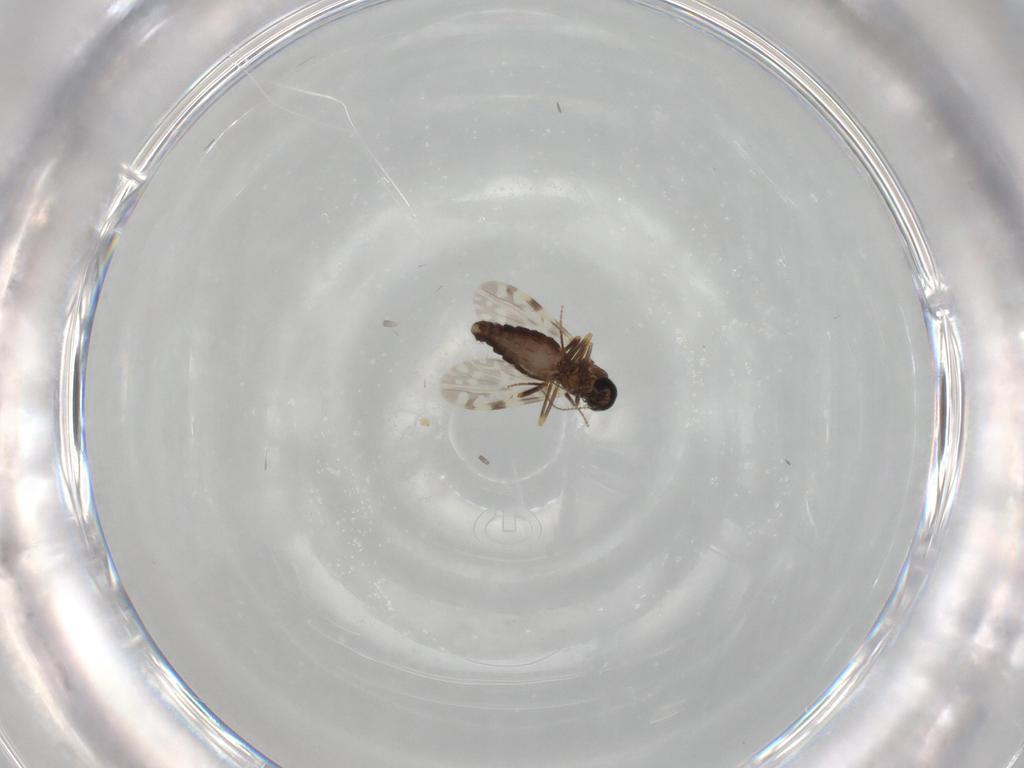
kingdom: Animalia
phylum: Arthropoda
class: Insecta
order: Diptera
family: Ceratopogonidae
